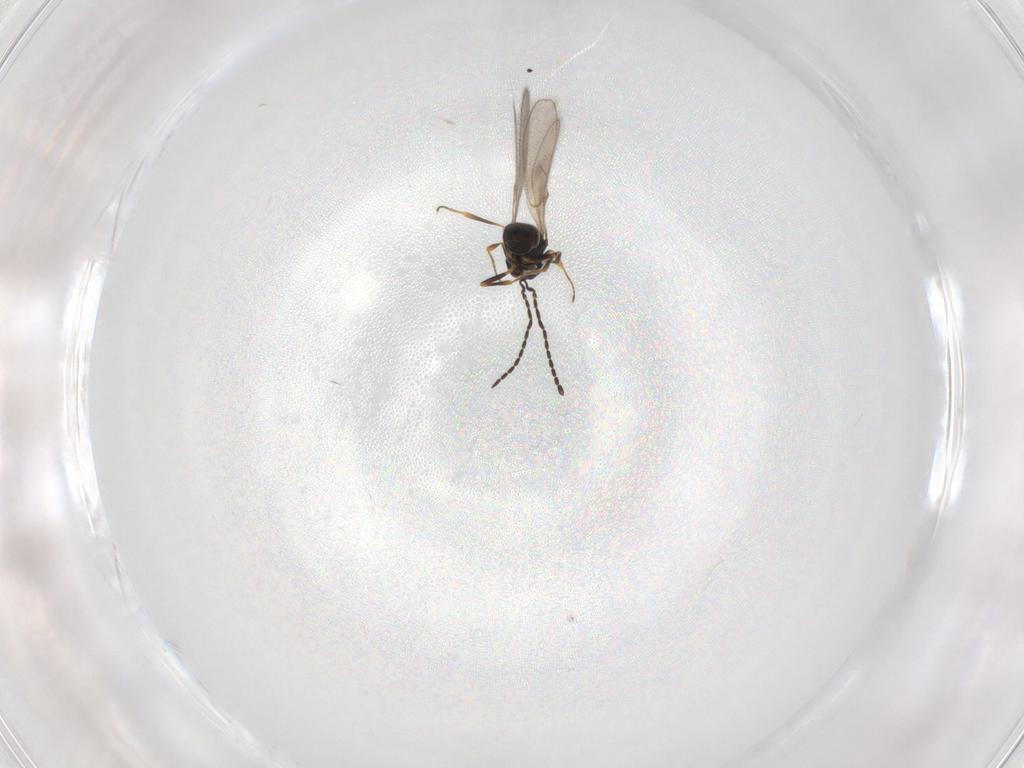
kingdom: Animalia
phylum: Arthropoda
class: Insecta
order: Hymenoptera
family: Scelionidae
